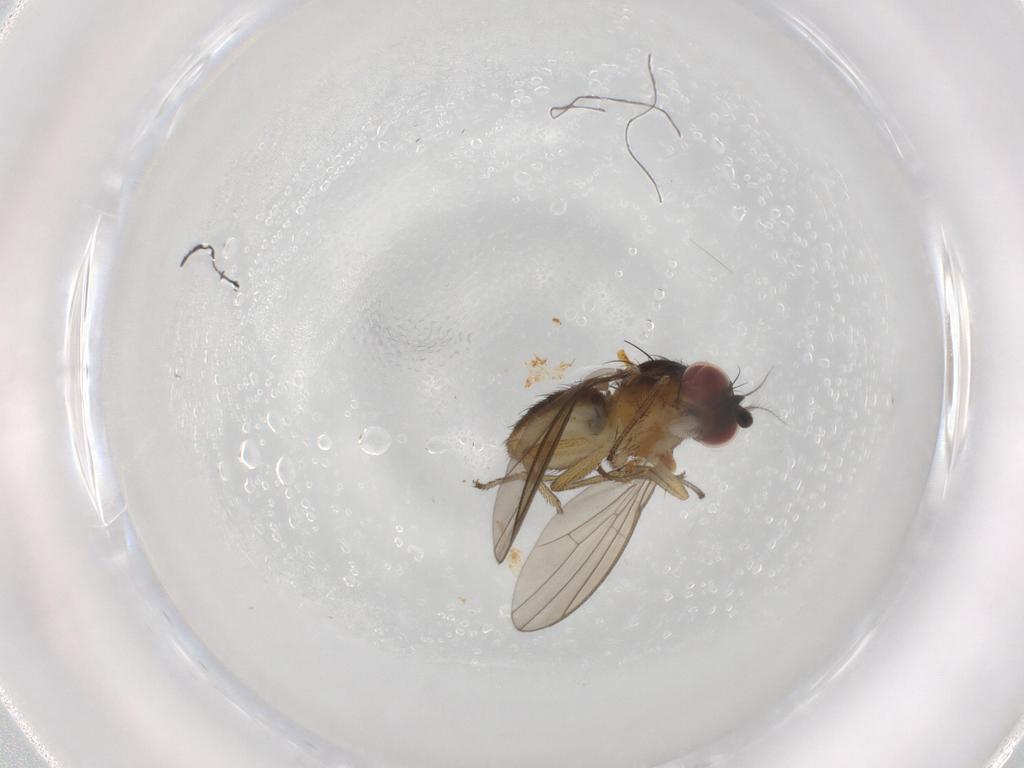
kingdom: Animalia
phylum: Arthropoda
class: Insecta
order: Diptera
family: Lauxaniidae
